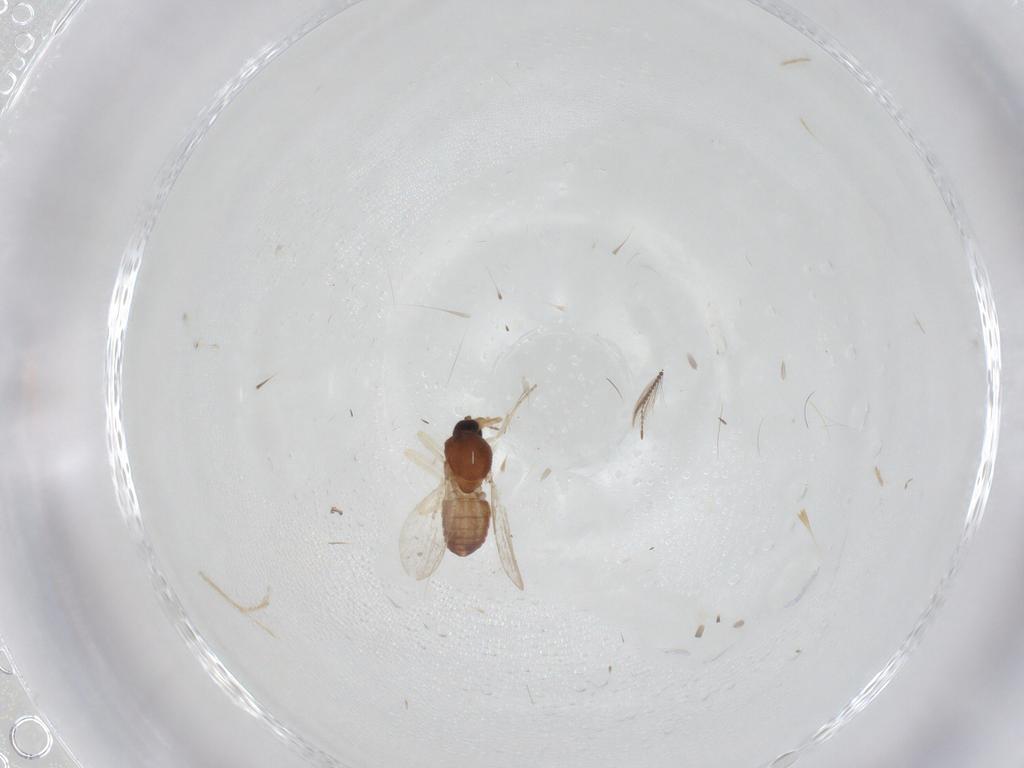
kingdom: Animalia
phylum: Arthropoda
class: Insecta
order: Diptera
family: Ceratopogonidae
